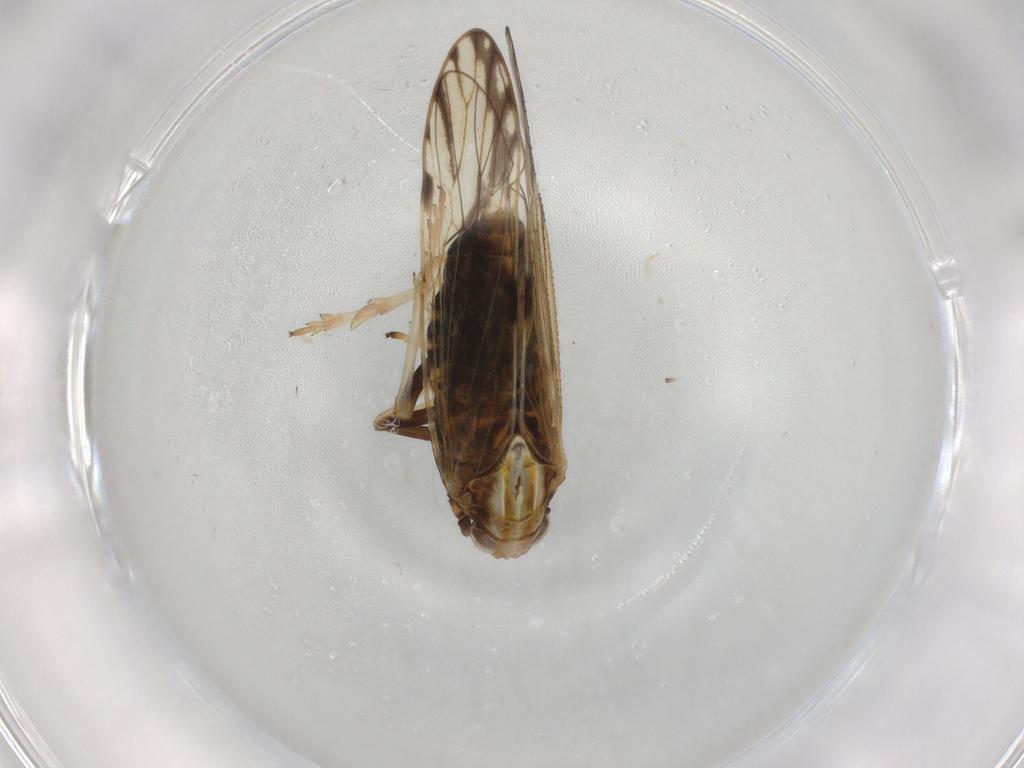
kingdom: Animalia
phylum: Arthropoda
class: Insecta
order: Hemiptera
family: Delphacidae
